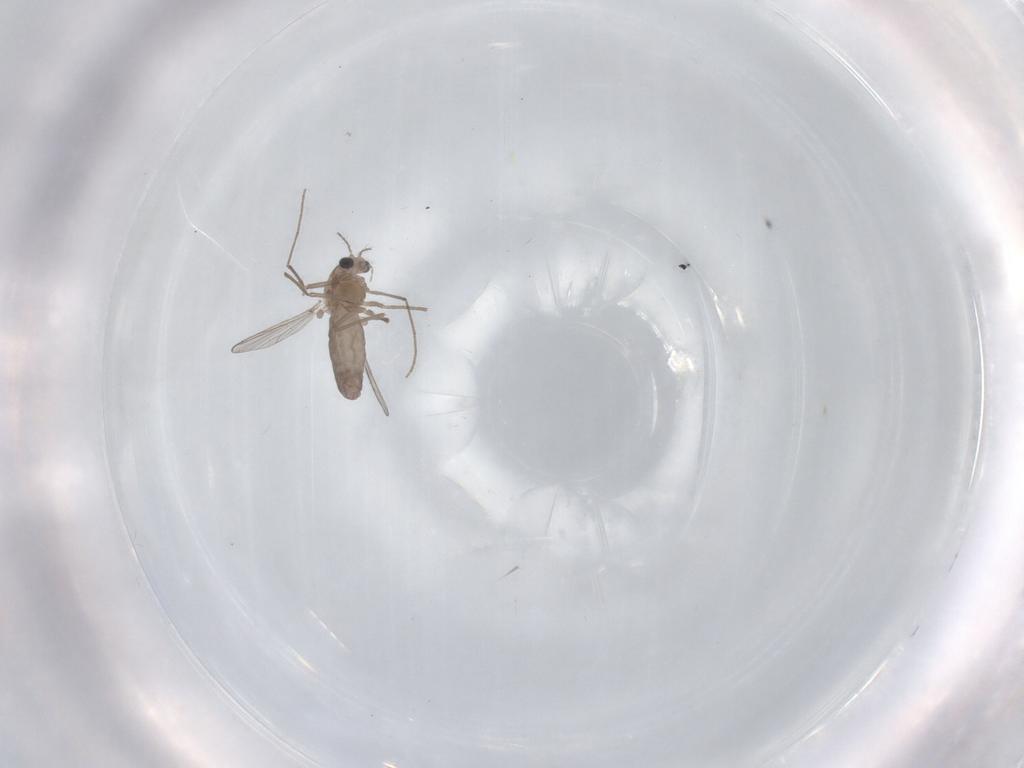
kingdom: Animalia
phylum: Arthropoda
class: Insecta
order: Diptera
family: Chironomidae
